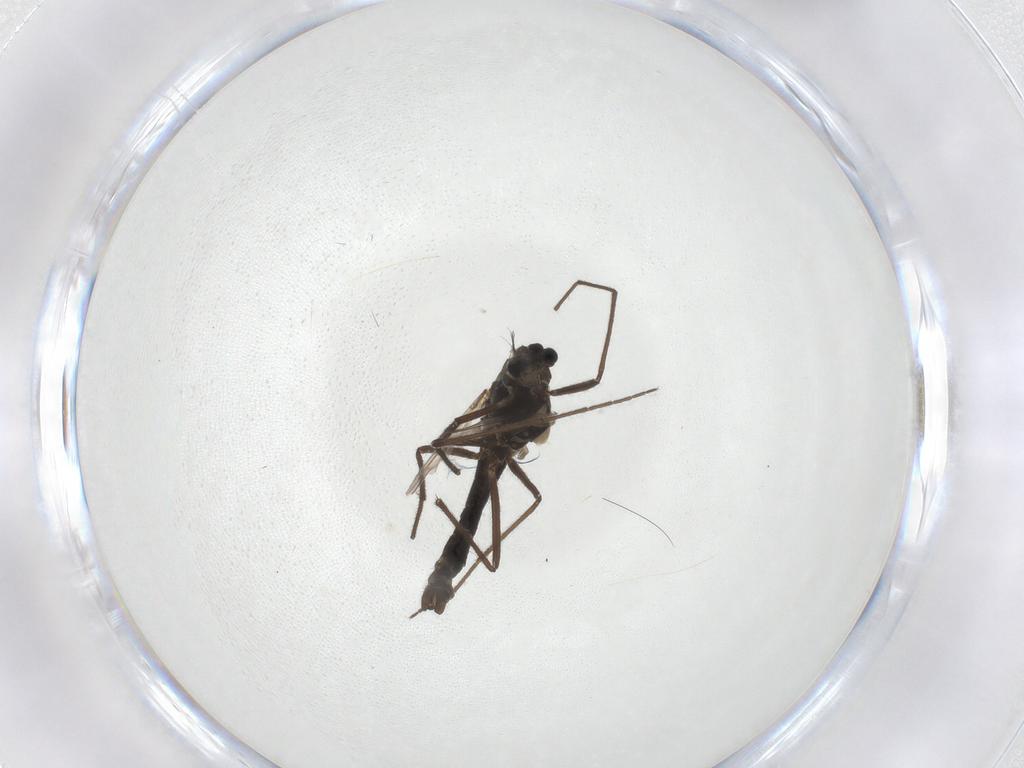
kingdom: Animalia
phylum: Arthropoda
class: Insecta
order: Diptera
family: Chironomidae
